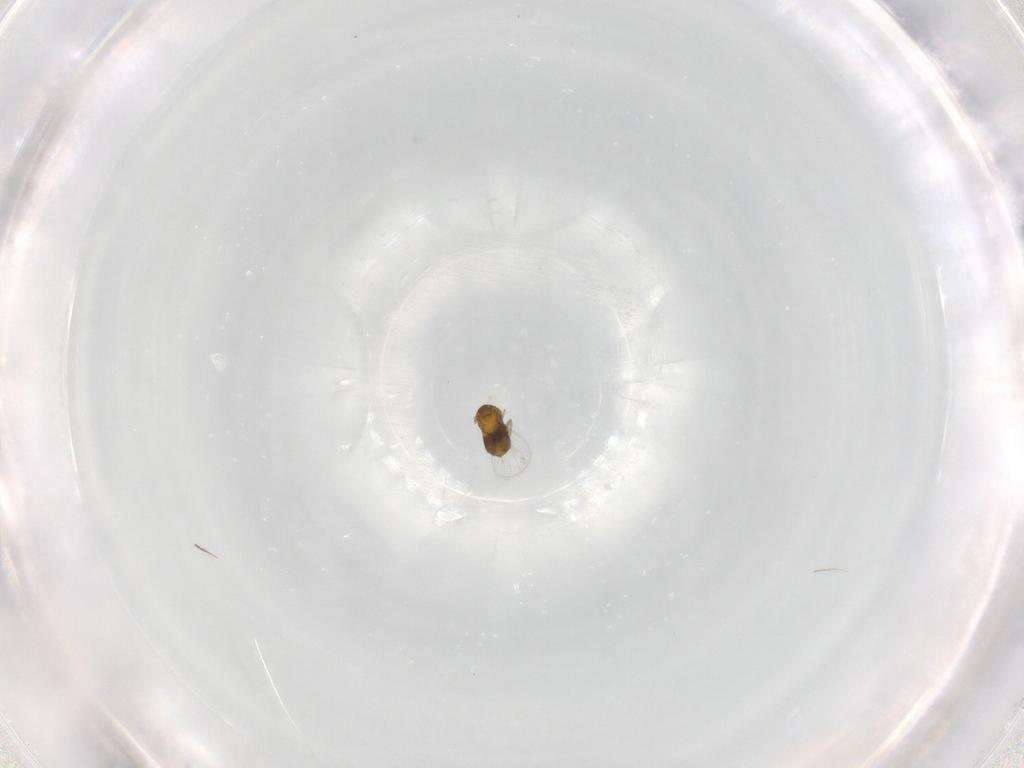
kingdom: Animalia
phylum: Arthropoda
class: Insecta
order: Hymenoptera
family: Trichogrammatidae
